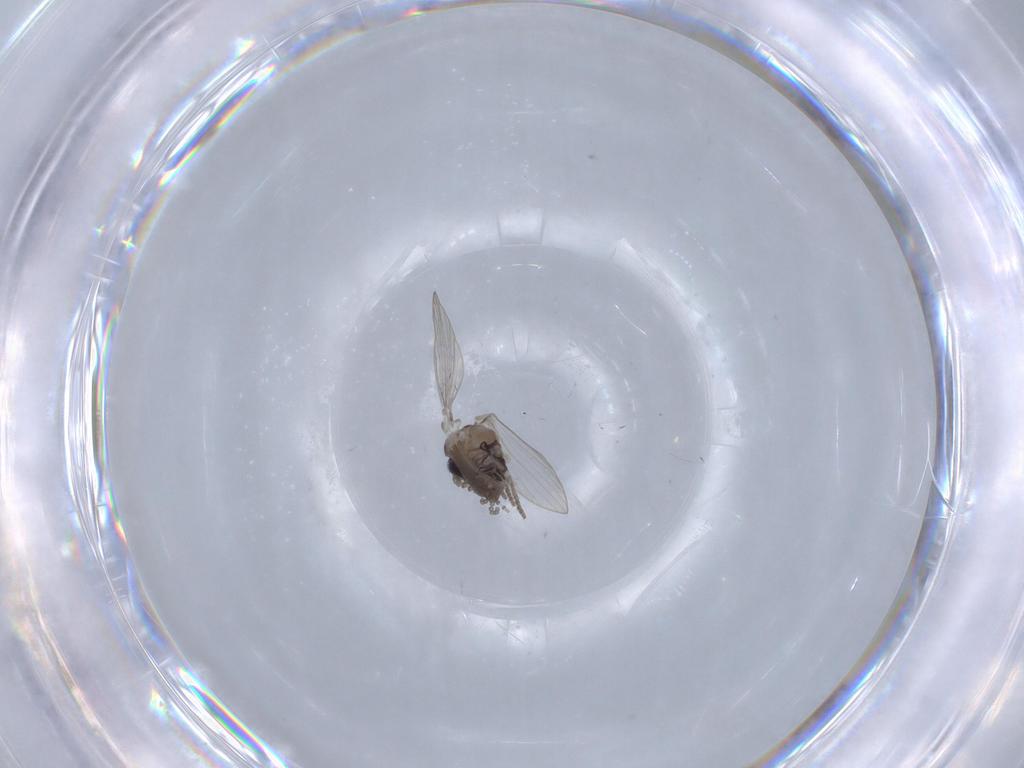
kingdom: Animalia
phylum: Arthropoda
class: Insecta
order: Diptera
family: Psychodidae
